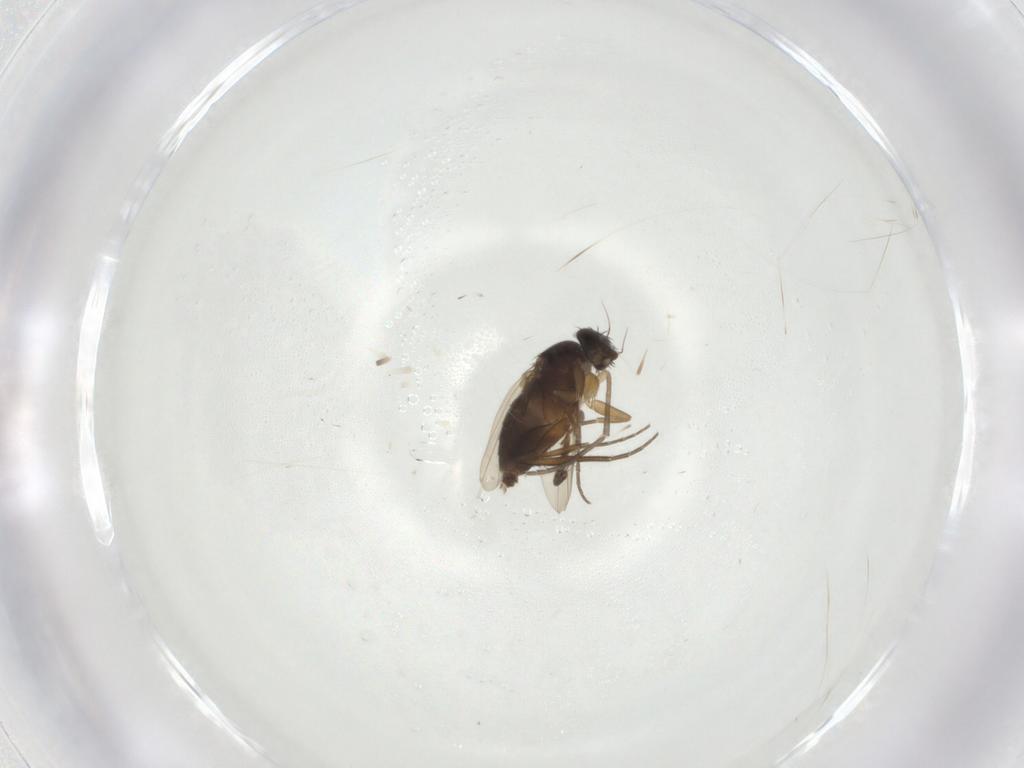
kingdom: Animalia
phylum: Arthropoda
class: Insecta
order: Diptera
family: Phoridae
